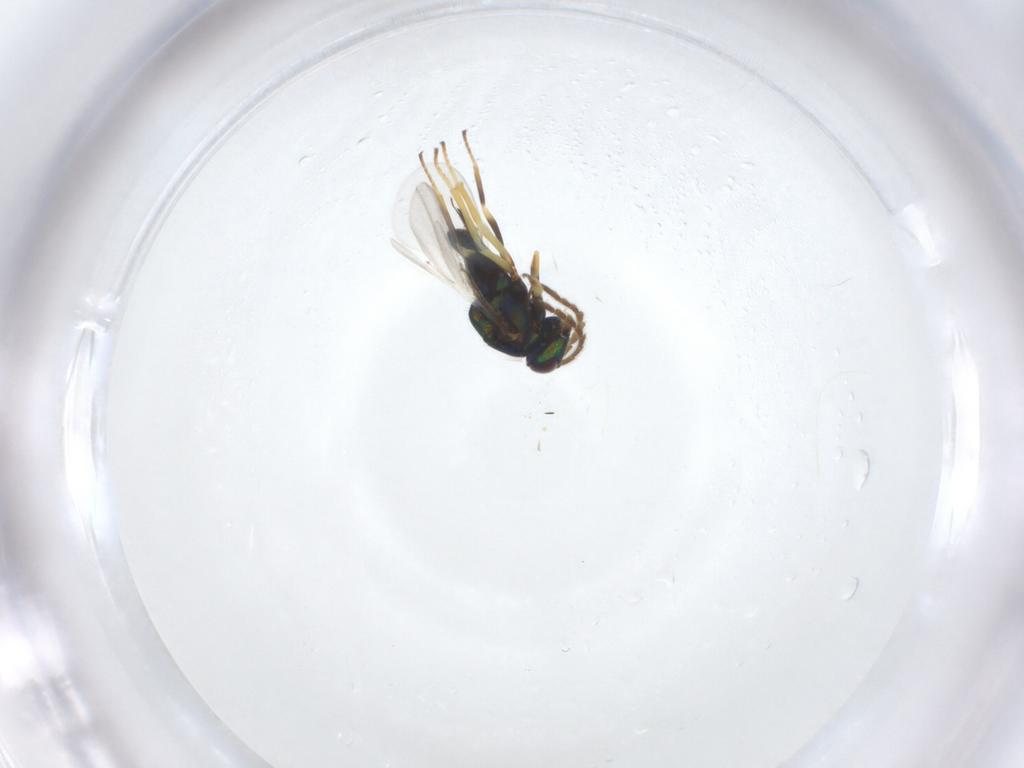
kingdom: Animalia
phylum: Arthropoda
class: Insecta
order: Hymenoptera
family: Encyrtidae
